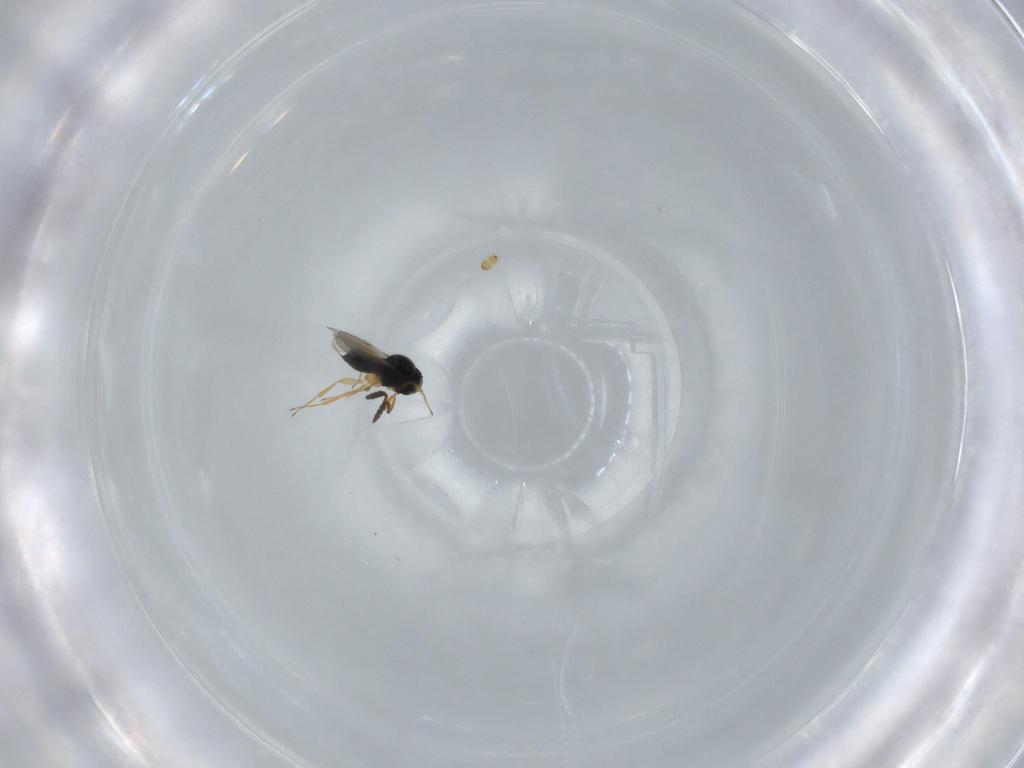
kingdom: Animalia
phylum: Arthropoda
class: Insecta
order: Hymenoptera
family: Scelionidae
